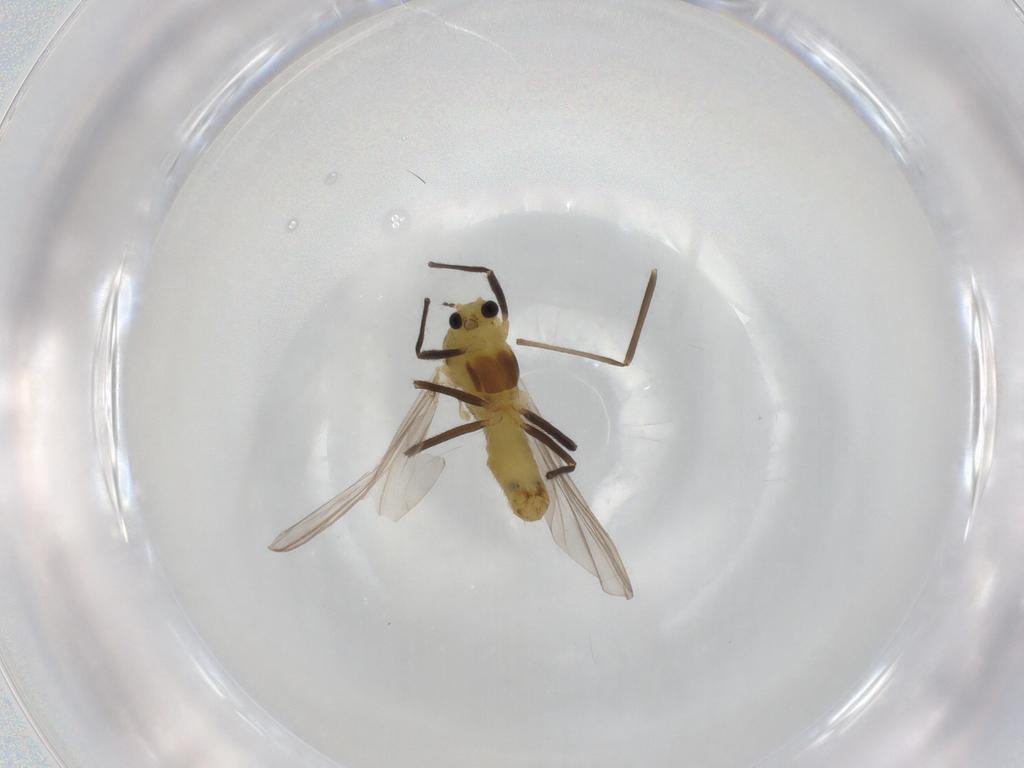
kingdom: Animalia
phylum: Arthropoda
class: Insecta
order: Diptera
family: Chironomidae
